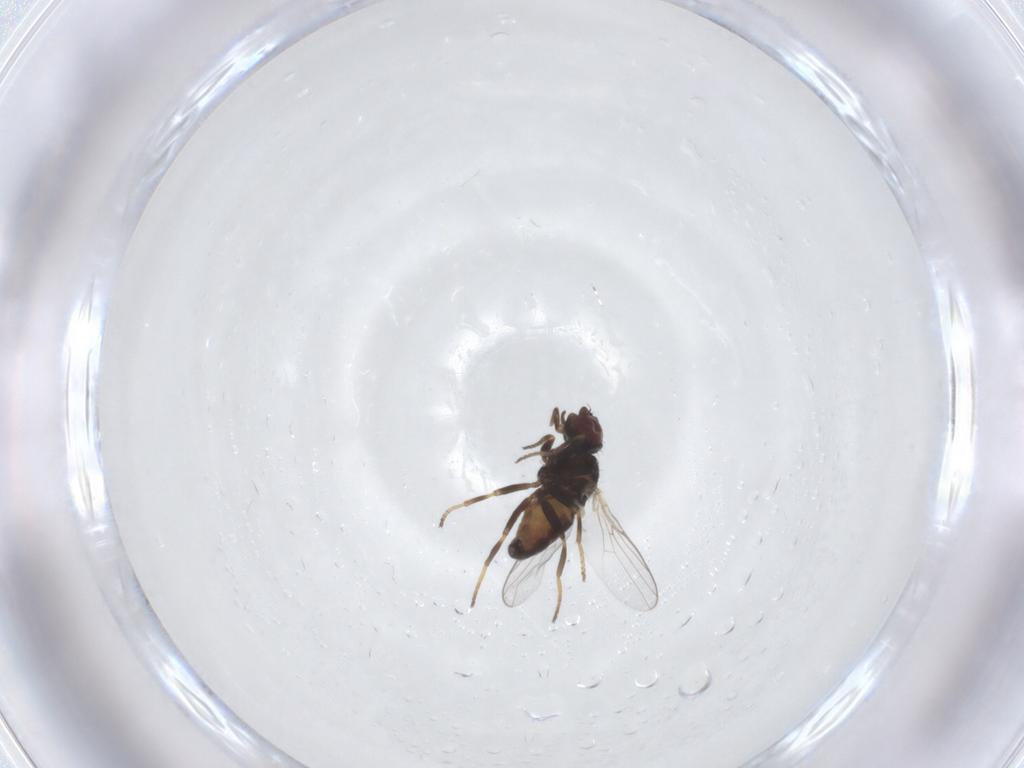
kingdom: Animalia
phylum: Arthropoda
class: Insecta
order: Diptera
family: Chloropidae
